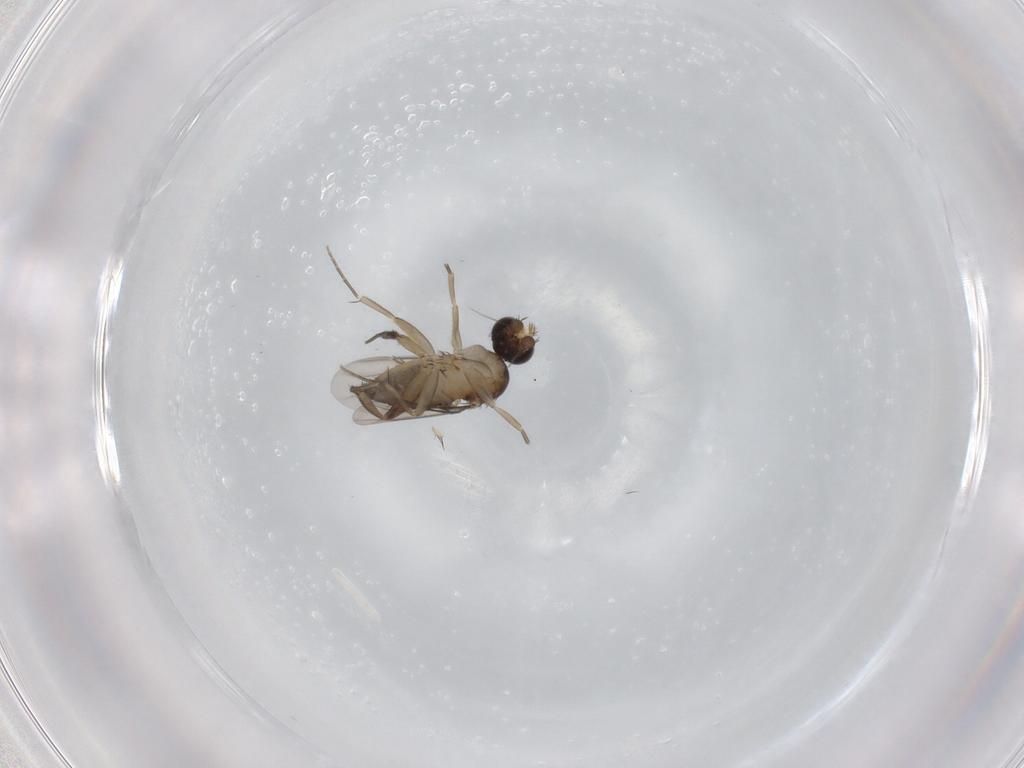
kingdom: Animalia
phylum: Arthropoda
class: Insecta
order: Diptera
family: Phoridae
